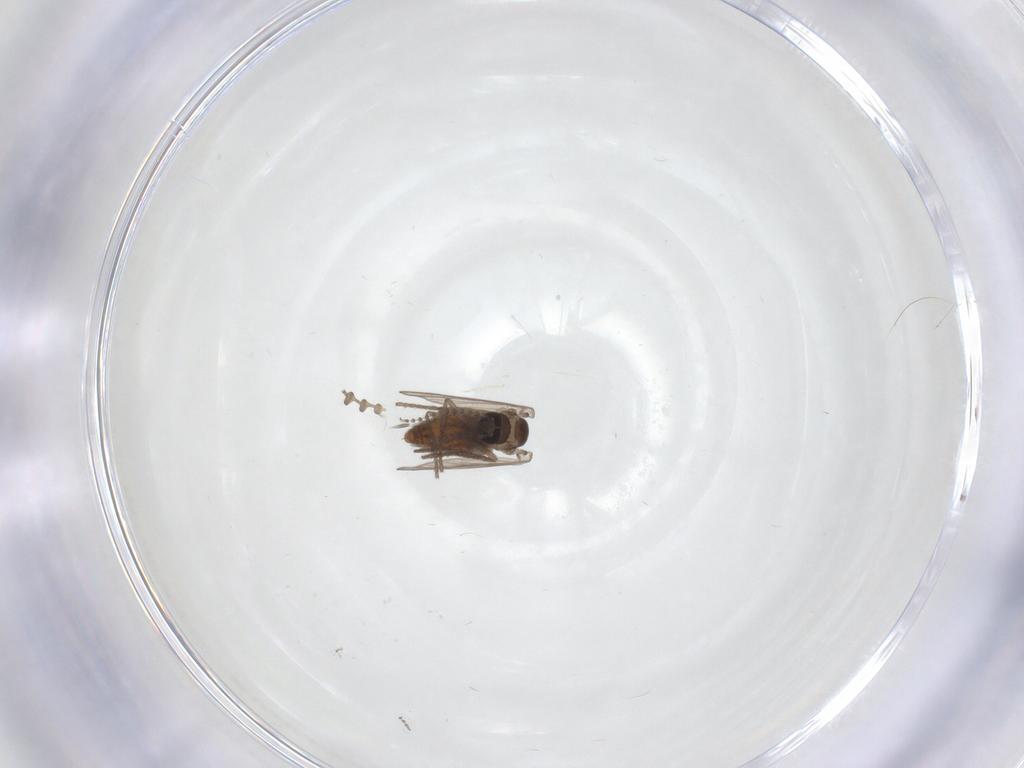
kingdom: Animalia
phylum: Arthropoda
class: Insecta
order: Diptera
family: Psychodidae
